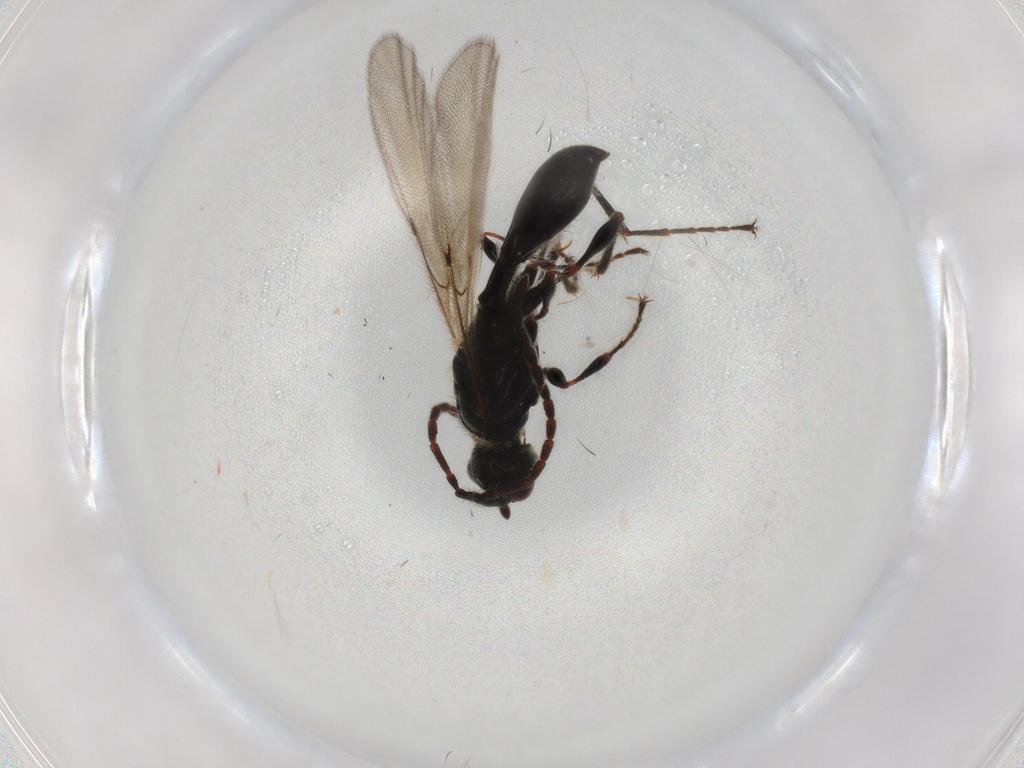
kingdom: Animalia
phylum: Arthropoda
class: Insecta
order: Hymenoptera
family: Diapriidae
